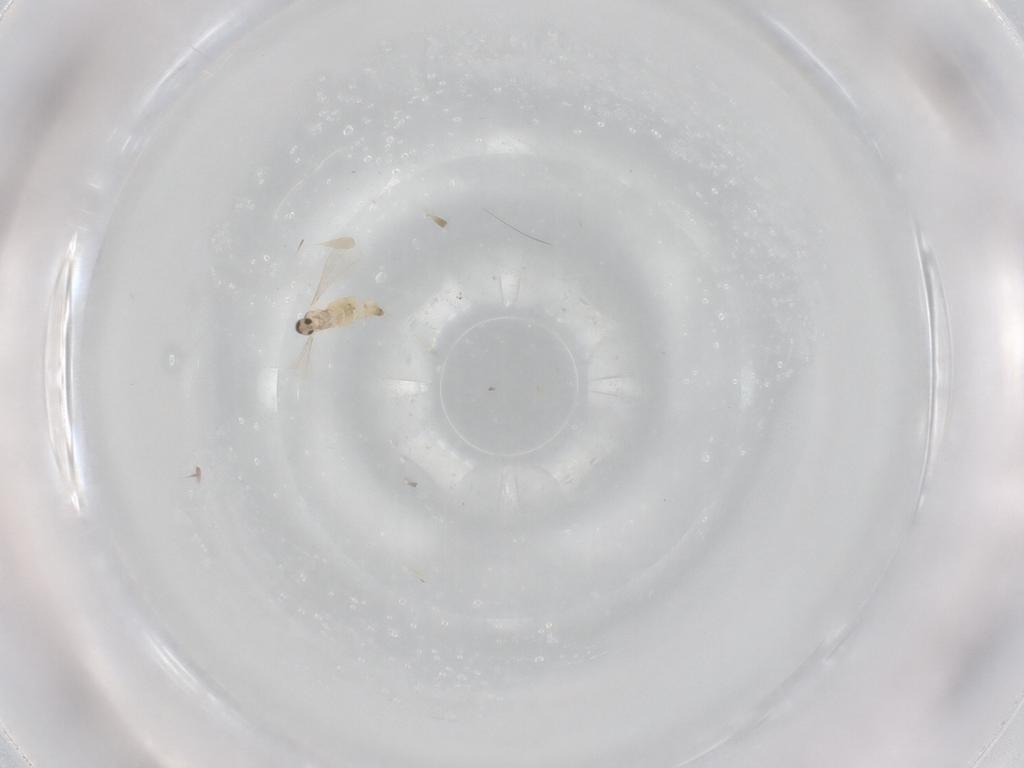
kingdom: Animalia
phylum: Arthropoda
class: Insecta
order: Diptera
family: Cecidomyiidae
